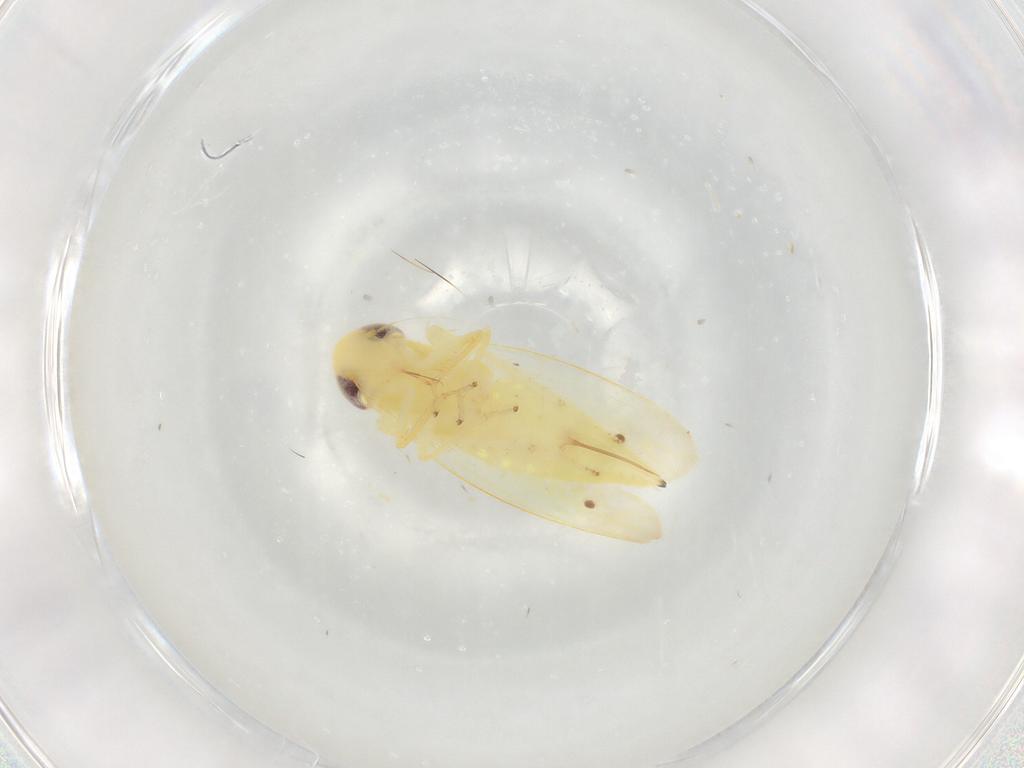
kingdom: Animalia
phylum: Arthropoda
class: Insecta
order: Hemiptera
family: Cicadellidae
